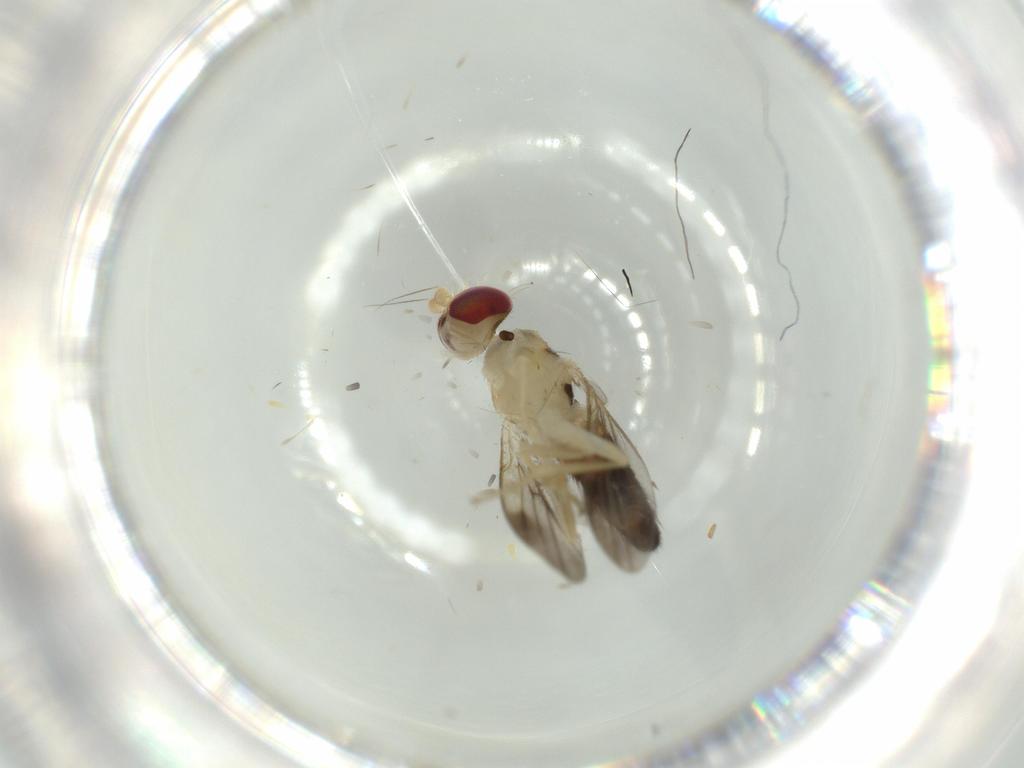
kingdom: Animalia
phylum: Arthropoda
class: Insecta
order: Diptera
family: Clusiidae
